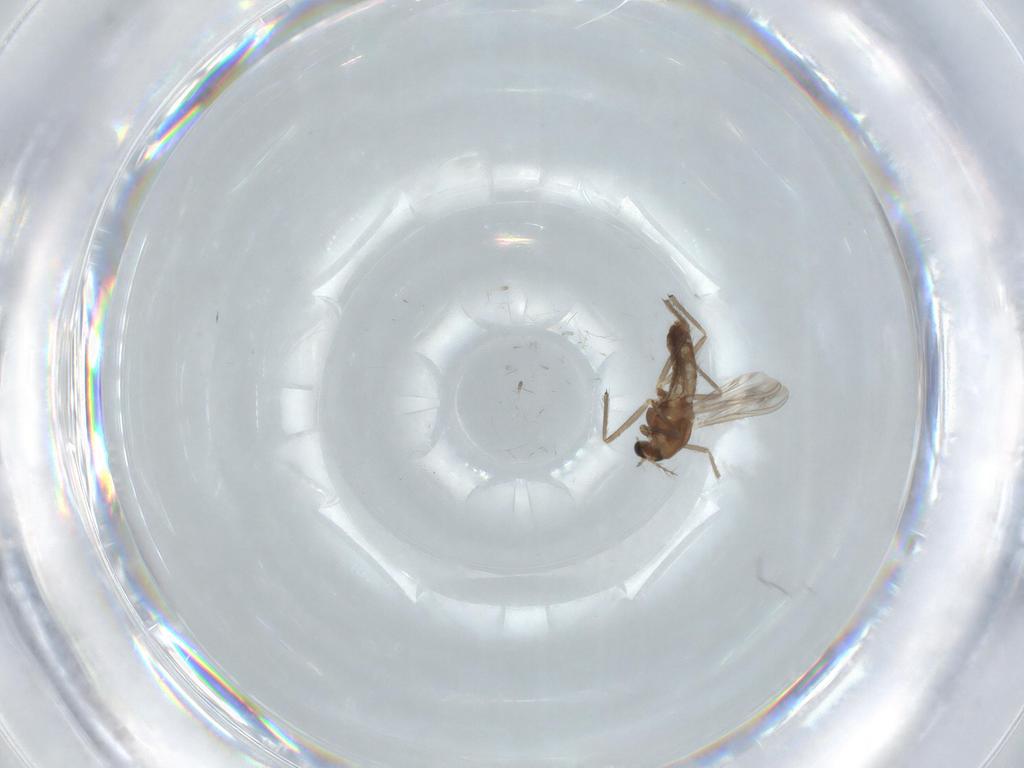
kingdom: Animalia
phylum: Arthropoda
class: Insecta
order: Diptera
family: Chironomidae
